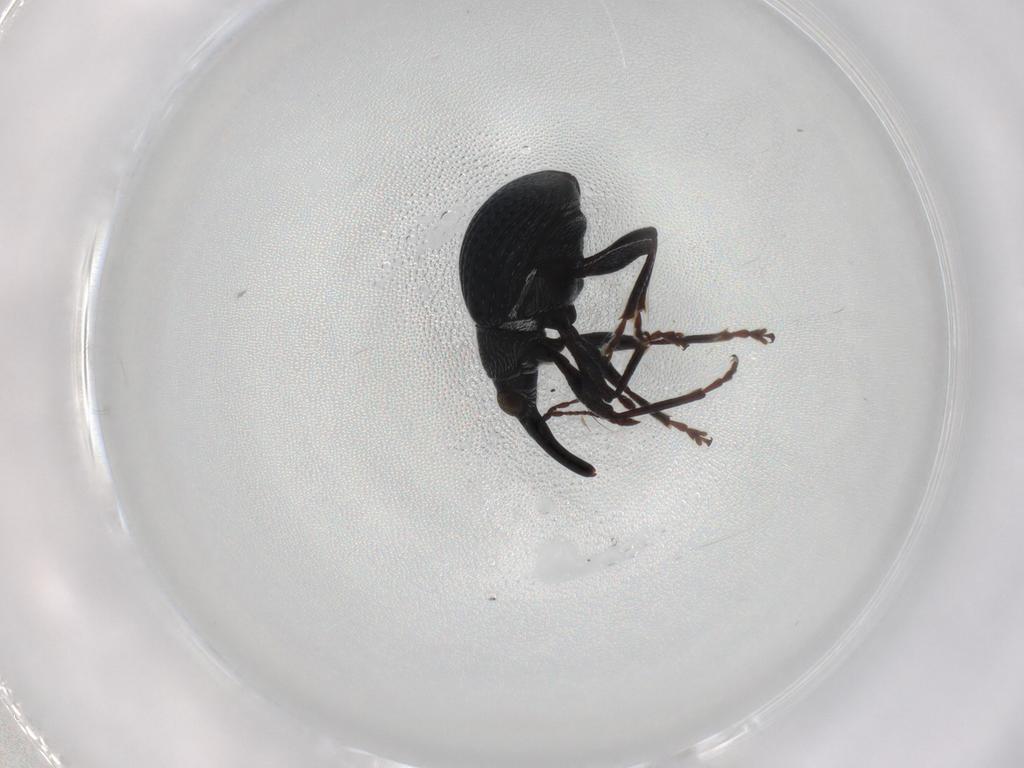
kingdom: Animalia
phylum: Arthropoda
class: Insecta
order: Coleoptera
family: Brentidae
